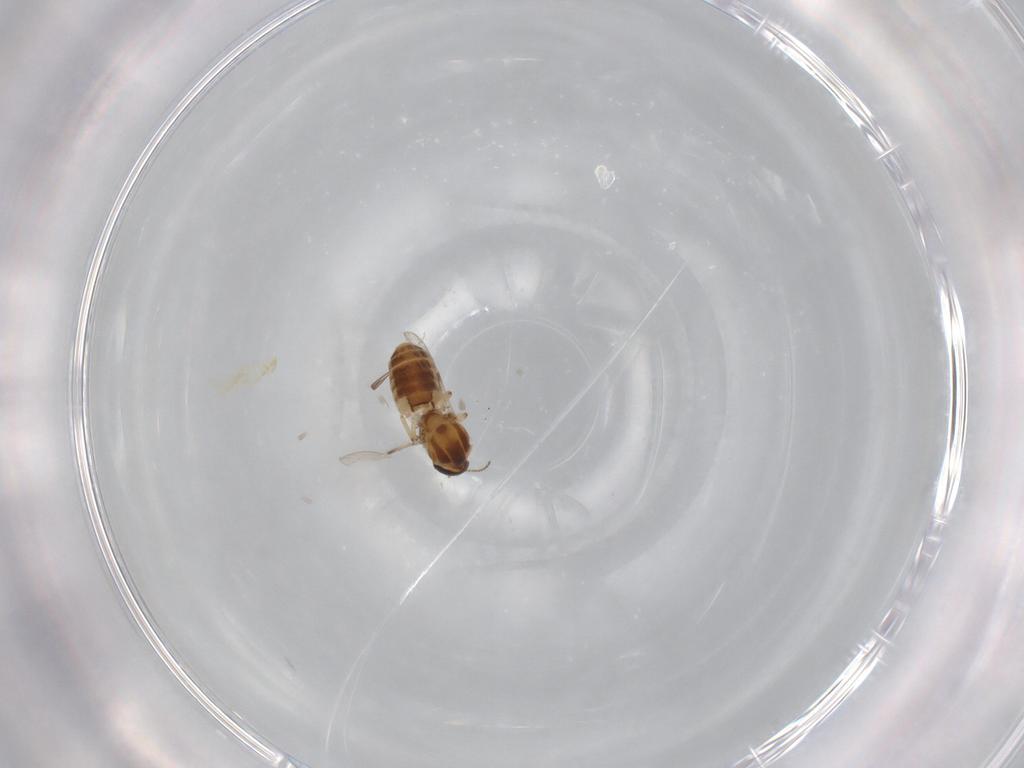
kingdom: Animalia
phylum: Arthropoda
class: Insecta
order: Diptera
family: Ceratopogonidae
